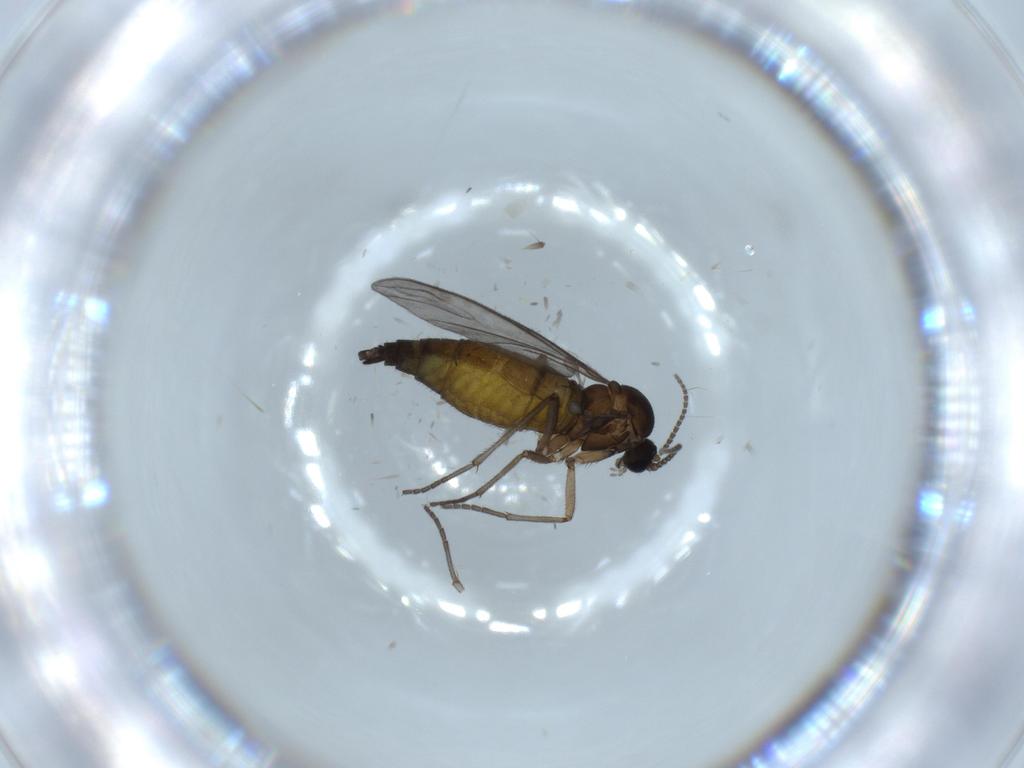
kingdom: Animalia
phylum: Arthropoda
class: Insecta
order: Diptera
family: Sciaridae
